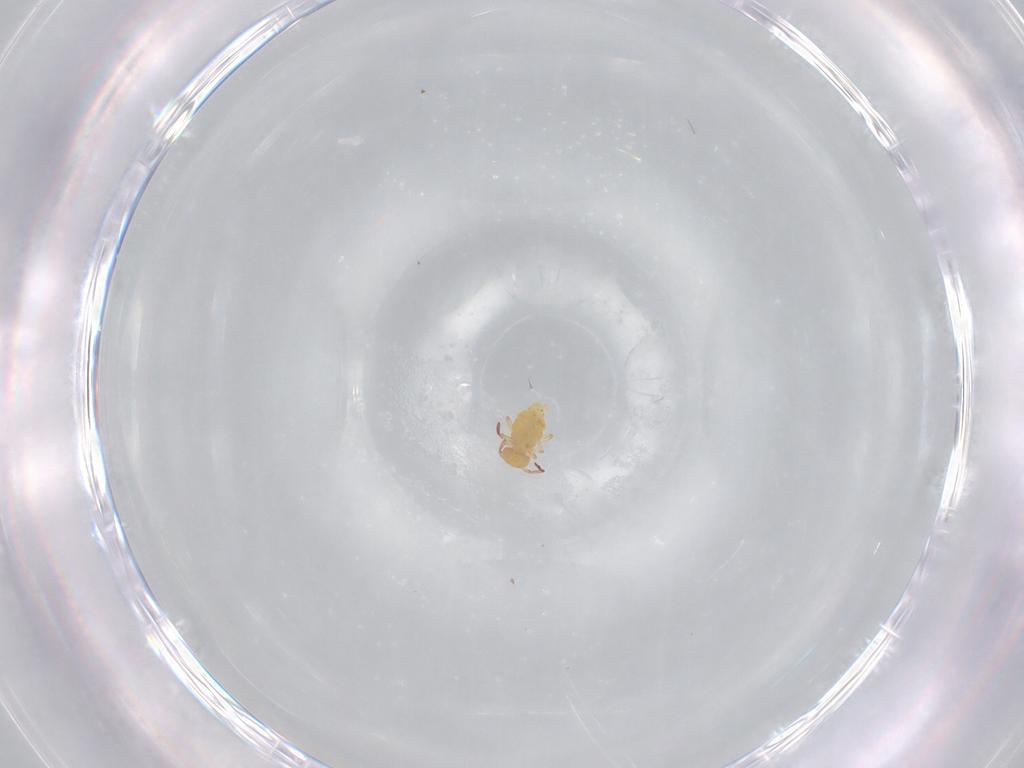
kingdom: Animalia
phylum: Arthropoda
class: Collembola
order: Symphypleona
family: Bourletiellidae
